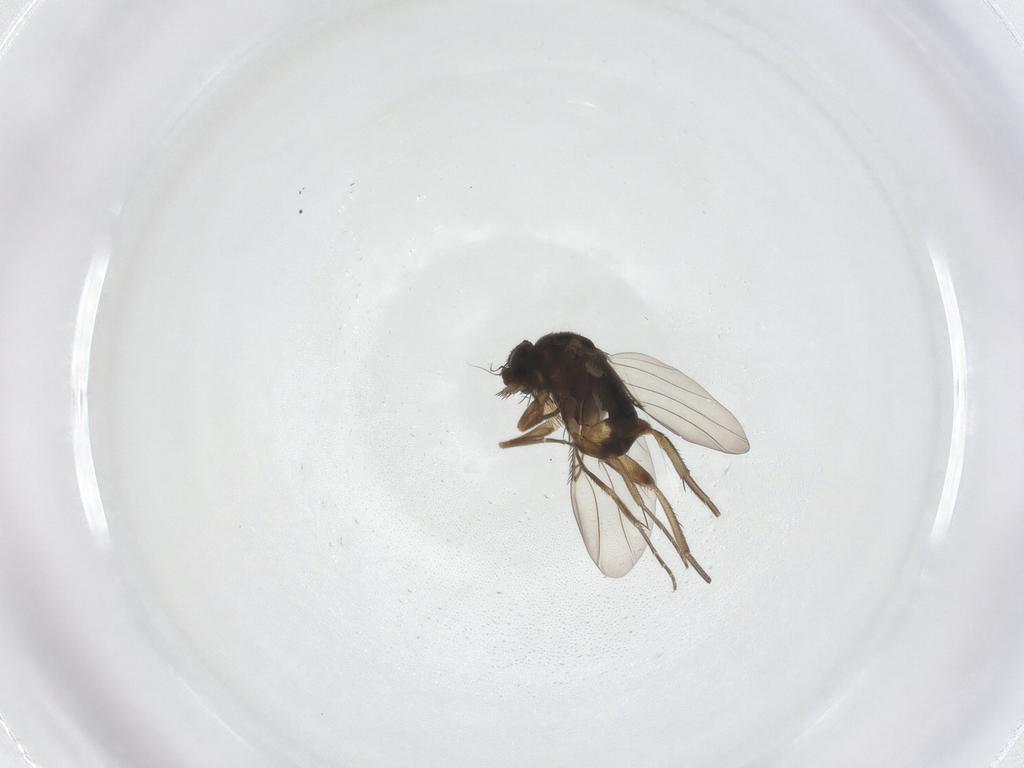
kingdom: Animalia
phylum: Arthropoda
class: Insecta
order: Diptera
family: Phoridae
